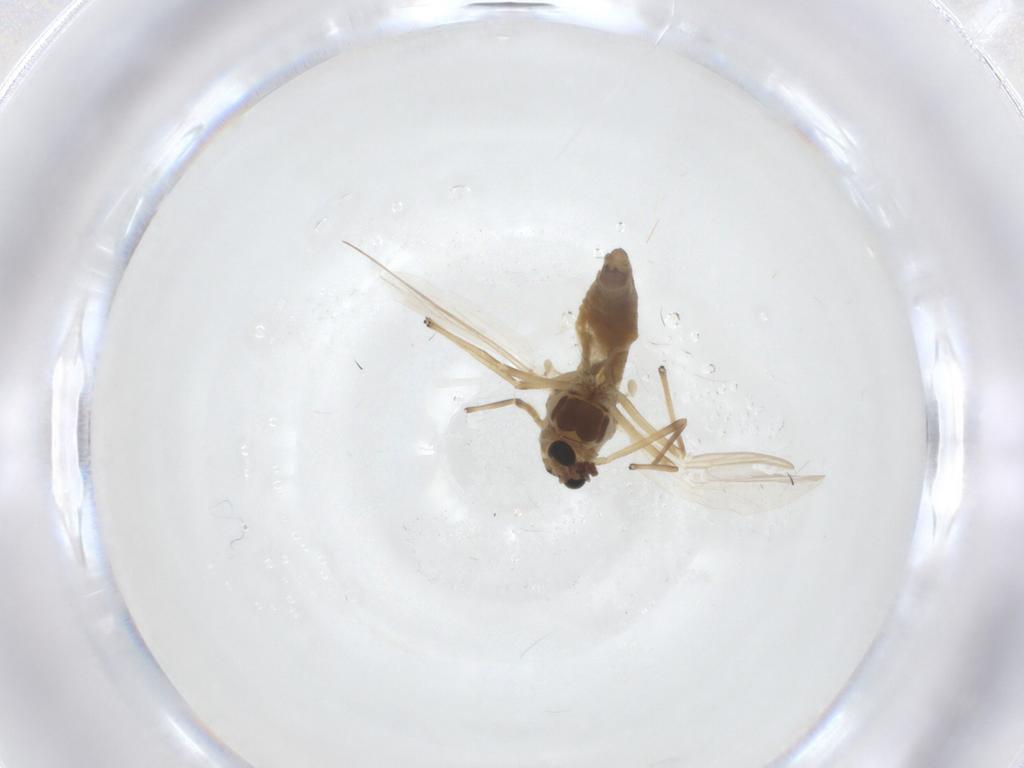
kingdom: Animalia
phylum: Arthropoda
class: Insecta
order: Diptera
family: Chironomidae
